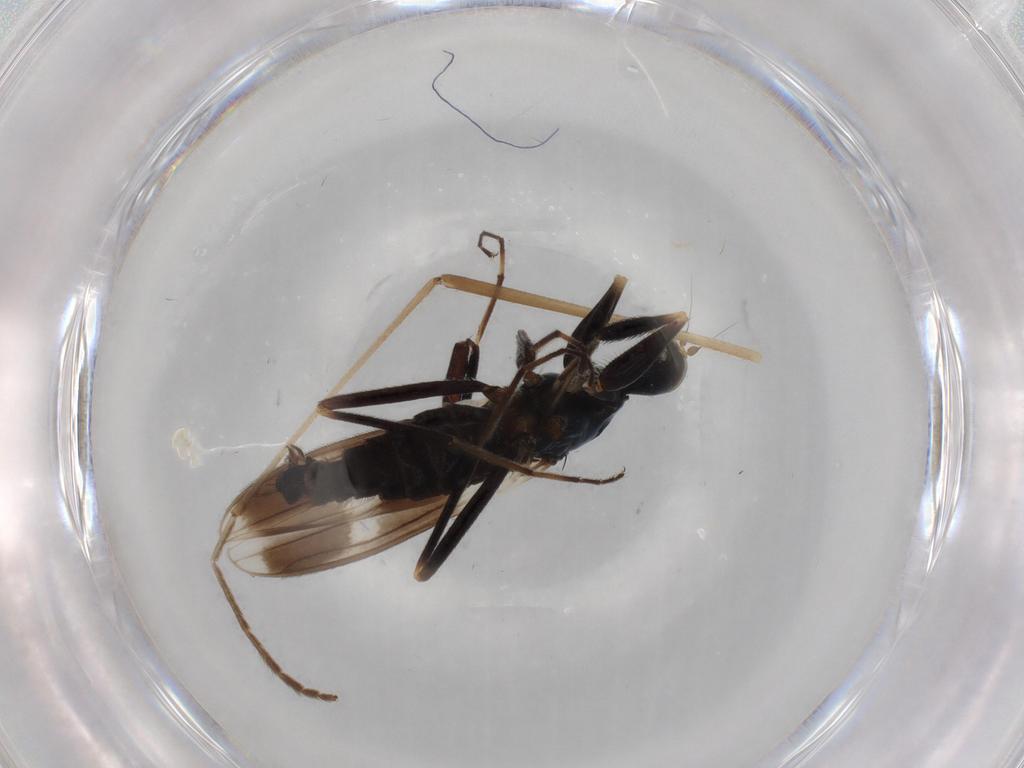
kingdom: Animalia
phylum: Arthropoda
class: Insecta
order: Diptera
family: Anisopodidae
